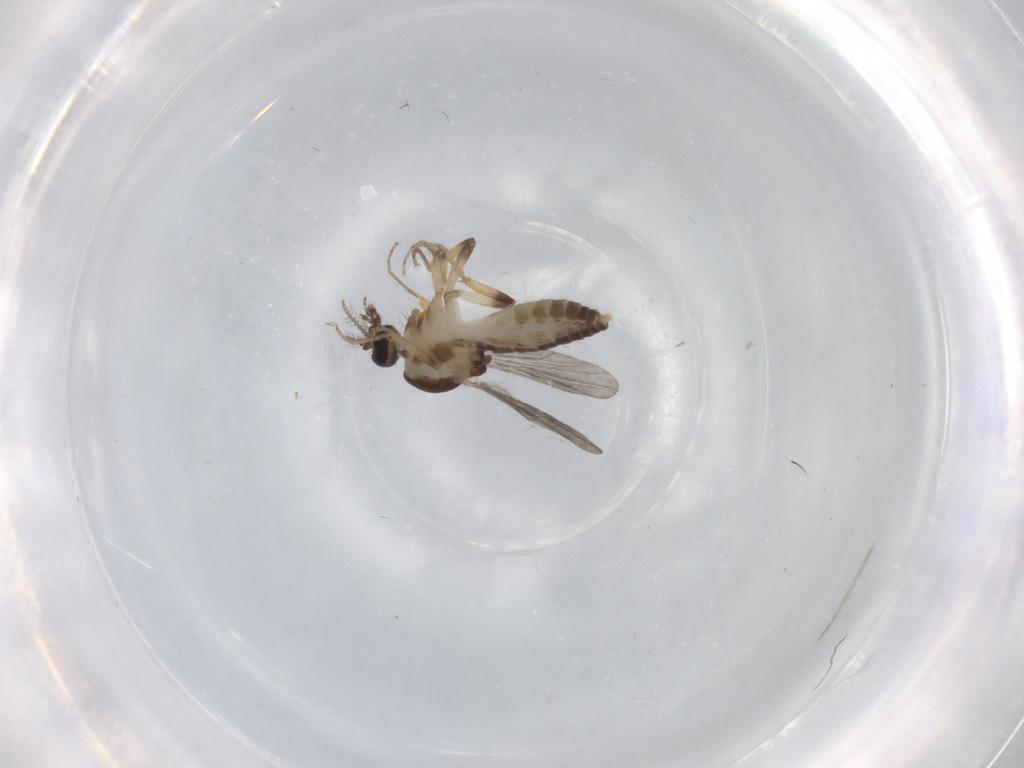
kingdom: Animalia
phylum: Arthropoda
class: Insecta
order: Diptera
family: Ceratopogonidae
